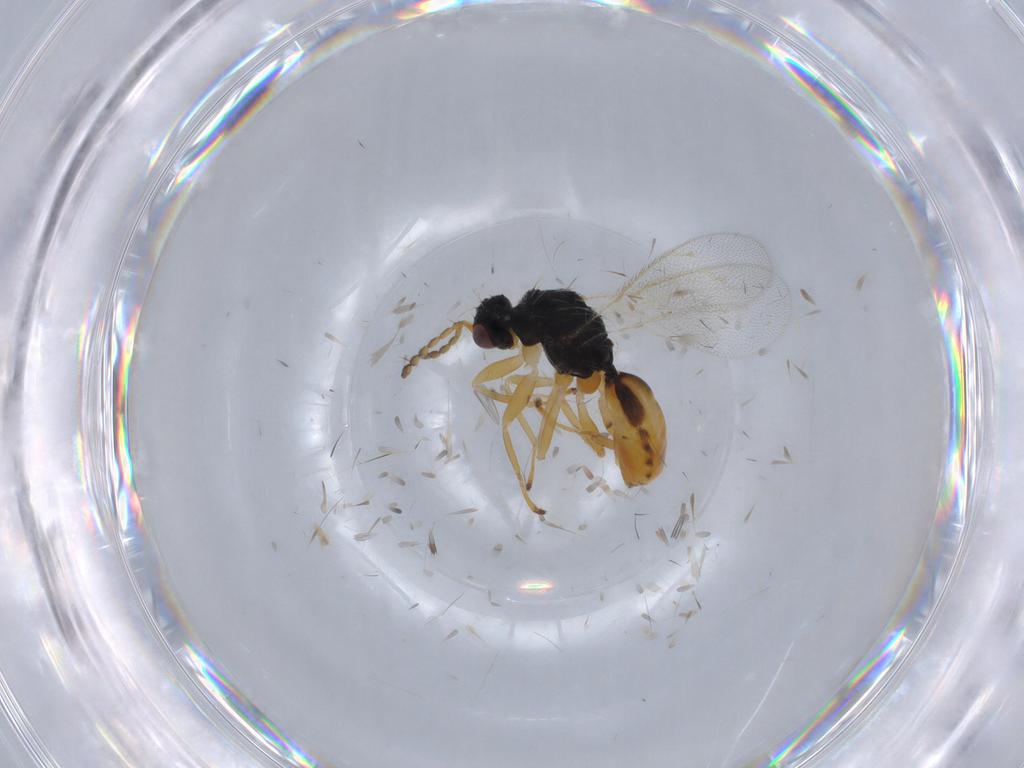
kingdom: Animalia
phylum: Arthropoda
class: Insecta
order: Hymenoptera
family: Eulophidae
